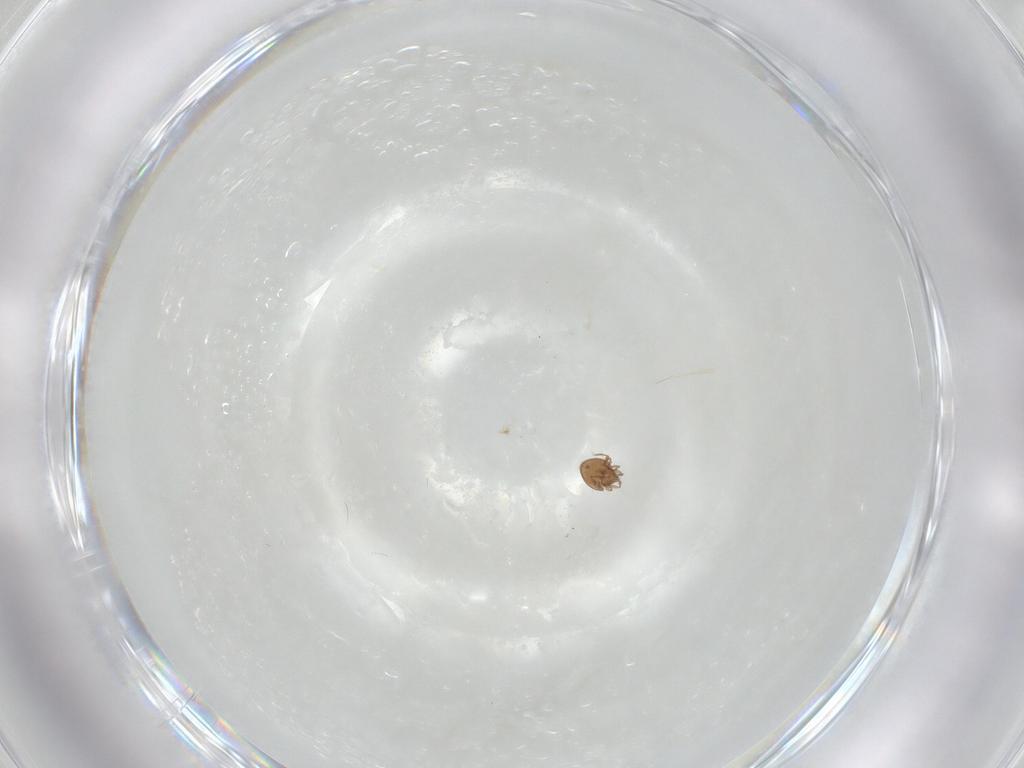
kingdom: Animalia
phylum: Arthropoda
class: Arachnida
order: Sarcoptiformes
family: Oribatulidae
